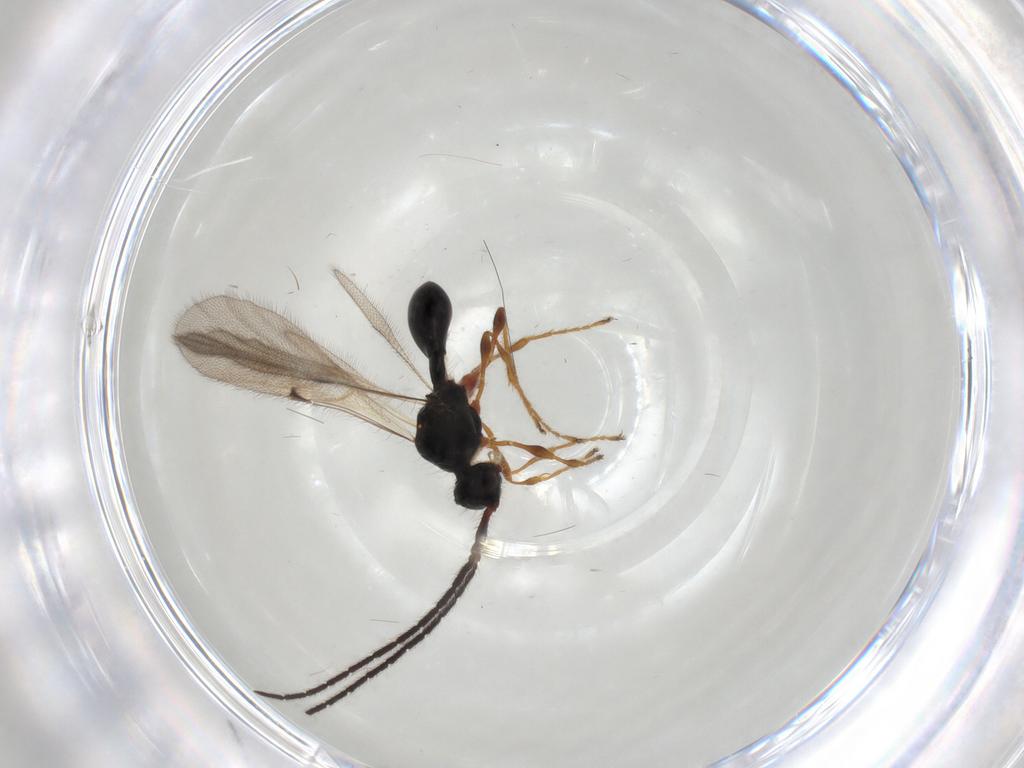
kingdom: Animalia
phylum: Arthropoda
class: Insecta
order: Hymenoptera
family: Diapriidae
